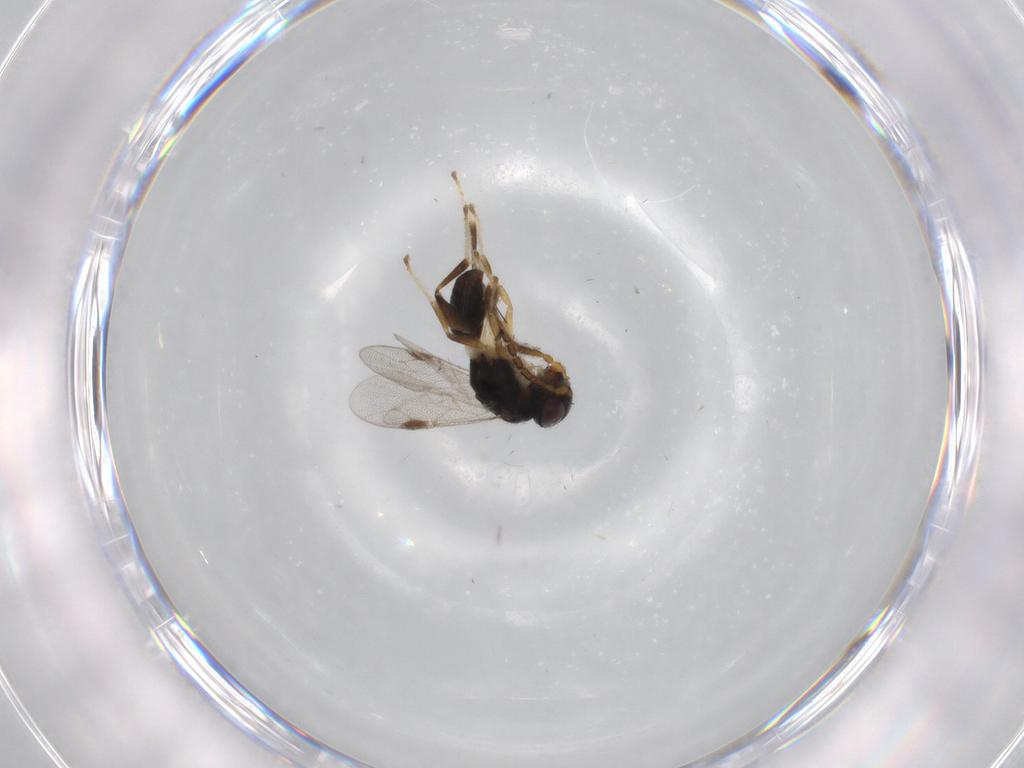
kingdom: Animalia
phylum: Arthropoda
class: Insecta
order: Hymenoptera
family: Dryinidae
